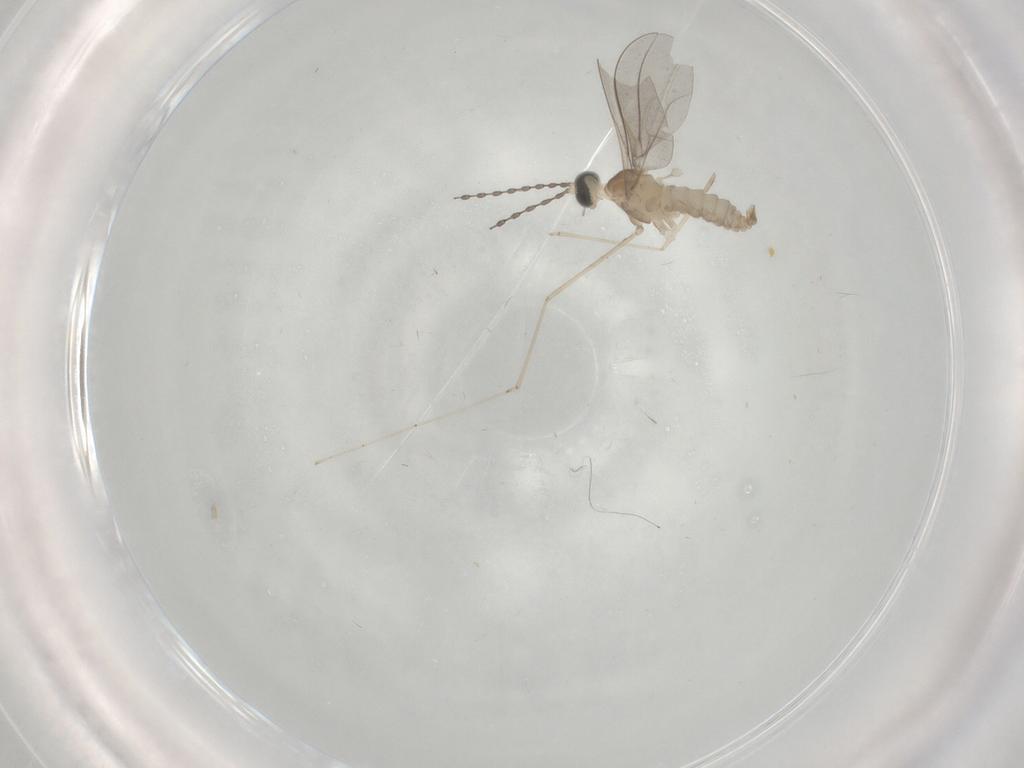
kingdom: Animalia
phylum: Arthropoda
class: Insecta
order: Diptera
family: Cecidomyiidae
